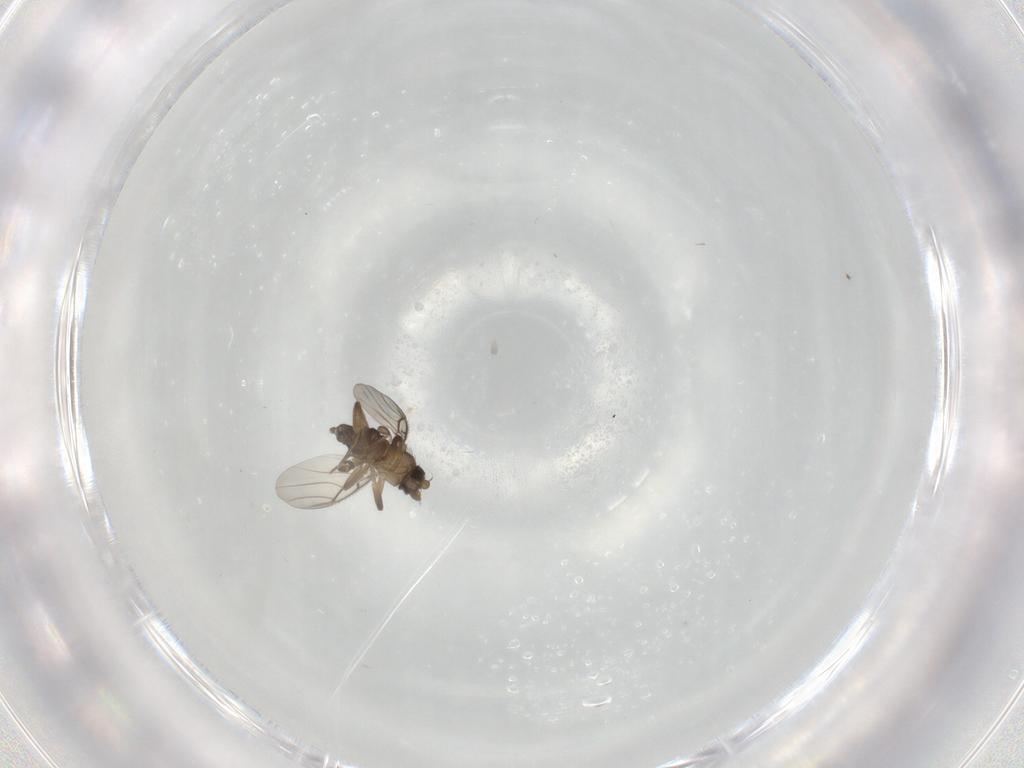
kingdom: Animalia
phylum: Arthropoda
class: Insecta
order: Diptera
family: Phoridae
